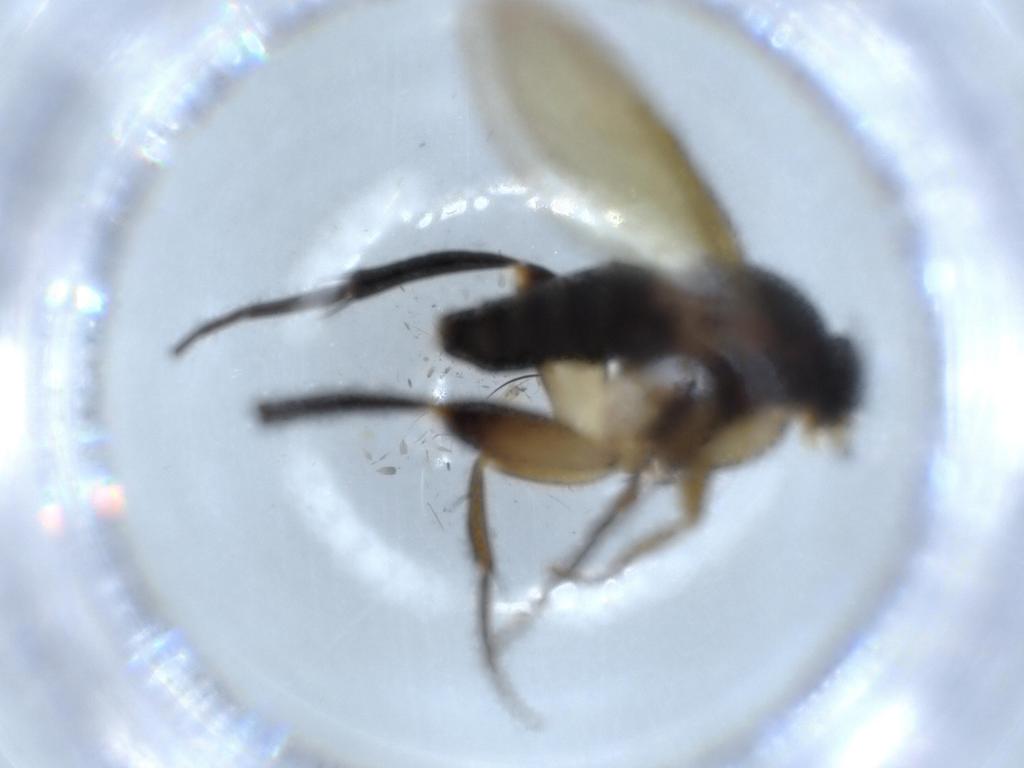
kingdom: Animalia
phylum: Arthropoda
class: Insecta
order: Diptera
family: Phoridae
